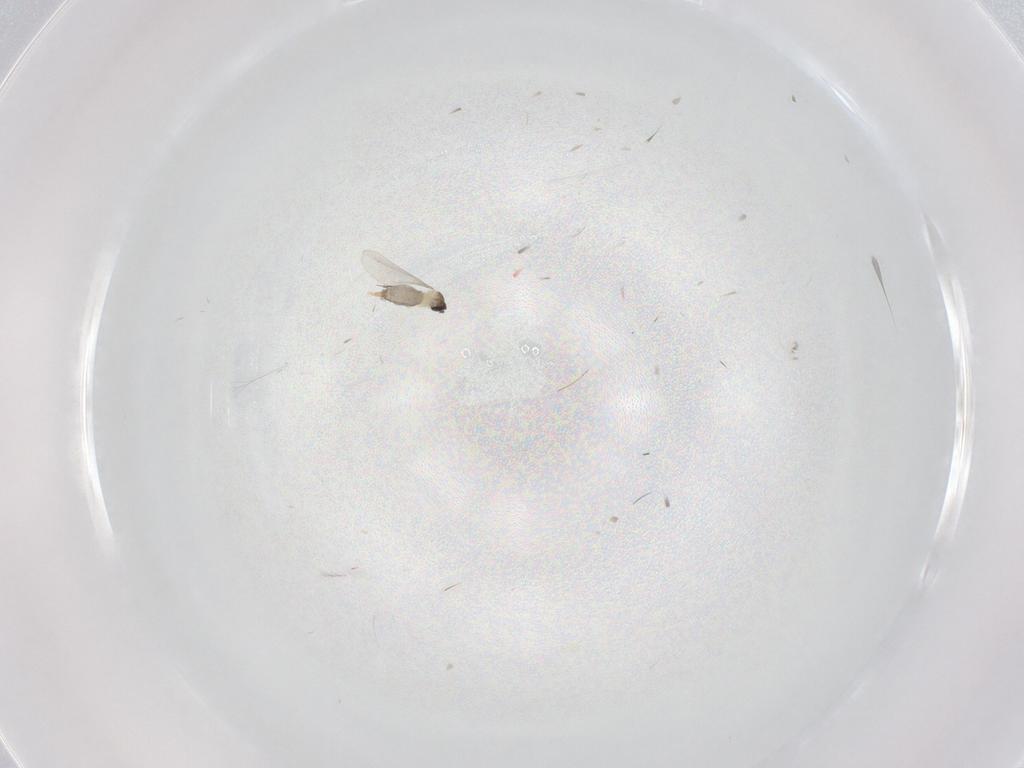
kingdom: Animalia
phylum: Arthropoda
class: Insecta
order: Diptera
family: Cecidomyiidae
